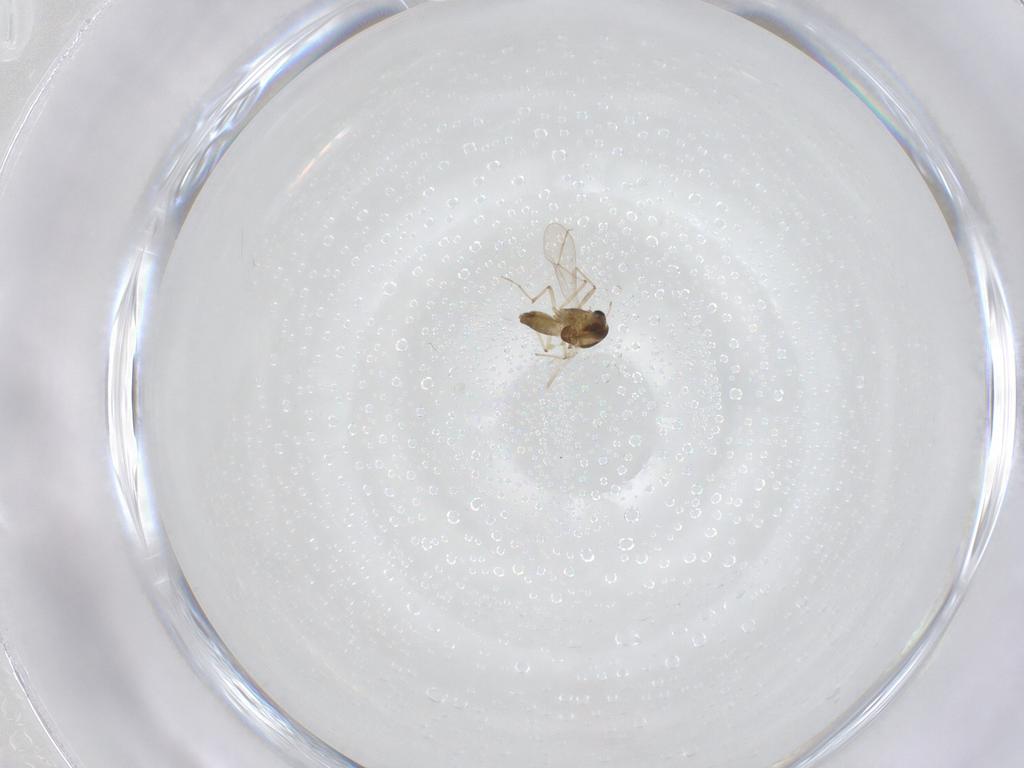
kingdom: Animalia
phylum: Arthropoda
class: Insecta
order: Diptera
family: Chironomidae
